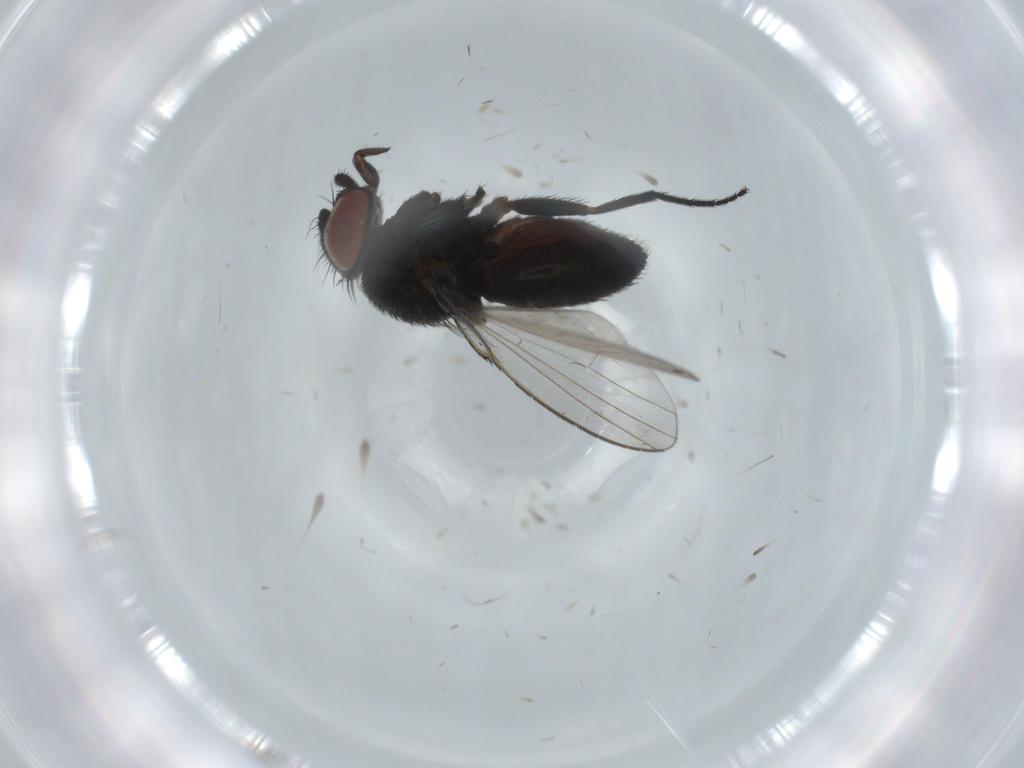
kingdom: Animalia
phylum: Arthropoda
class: Insecta
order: Diptera
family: Milichiidae
